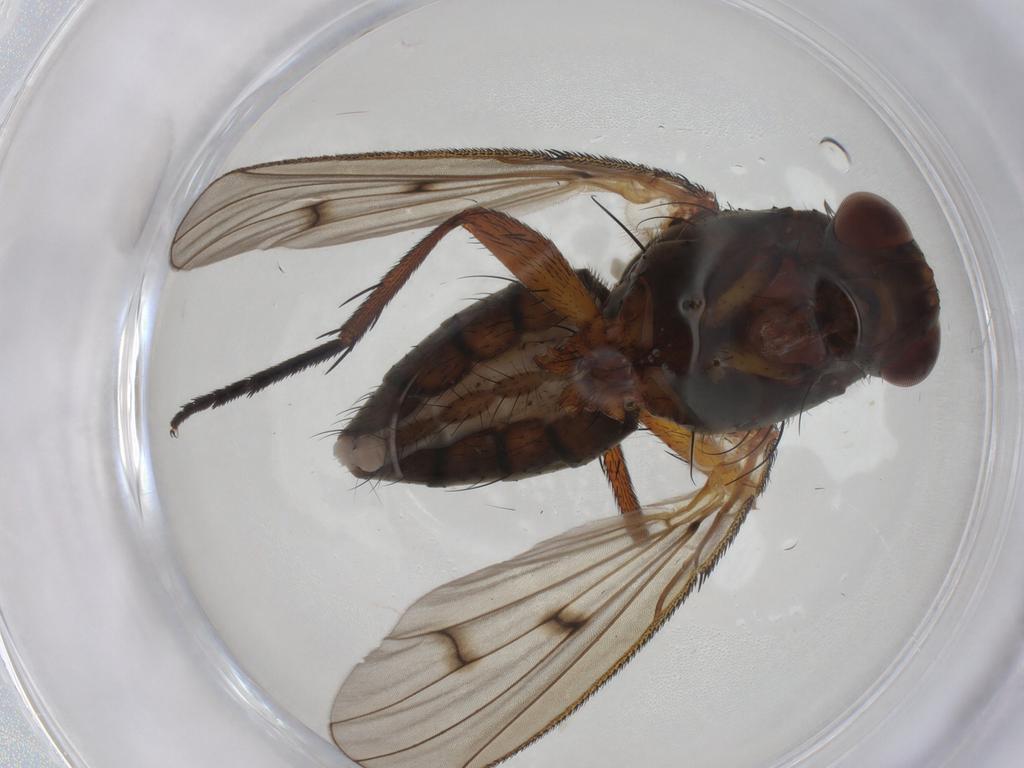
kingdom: Animalia
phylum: Arthropoda
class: Insecta
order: Diptera
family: Anthomyiidae
